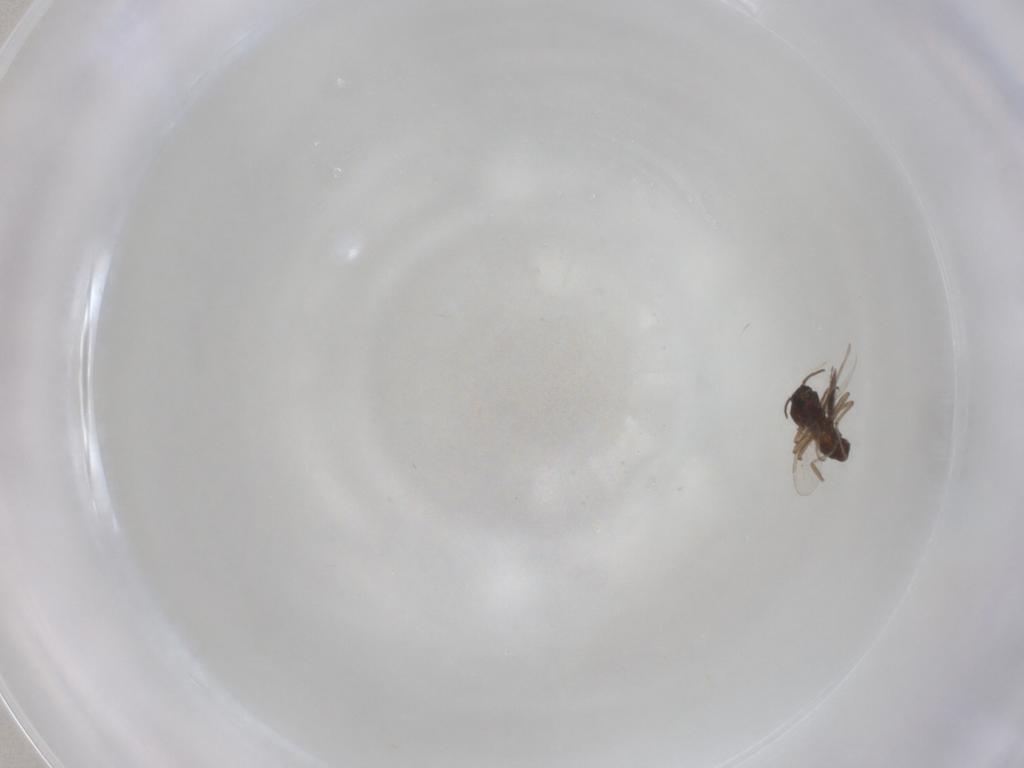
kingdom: Animalia
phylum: Arthropoda
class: Insecta
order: Diptera
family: Ceratopogonidae
